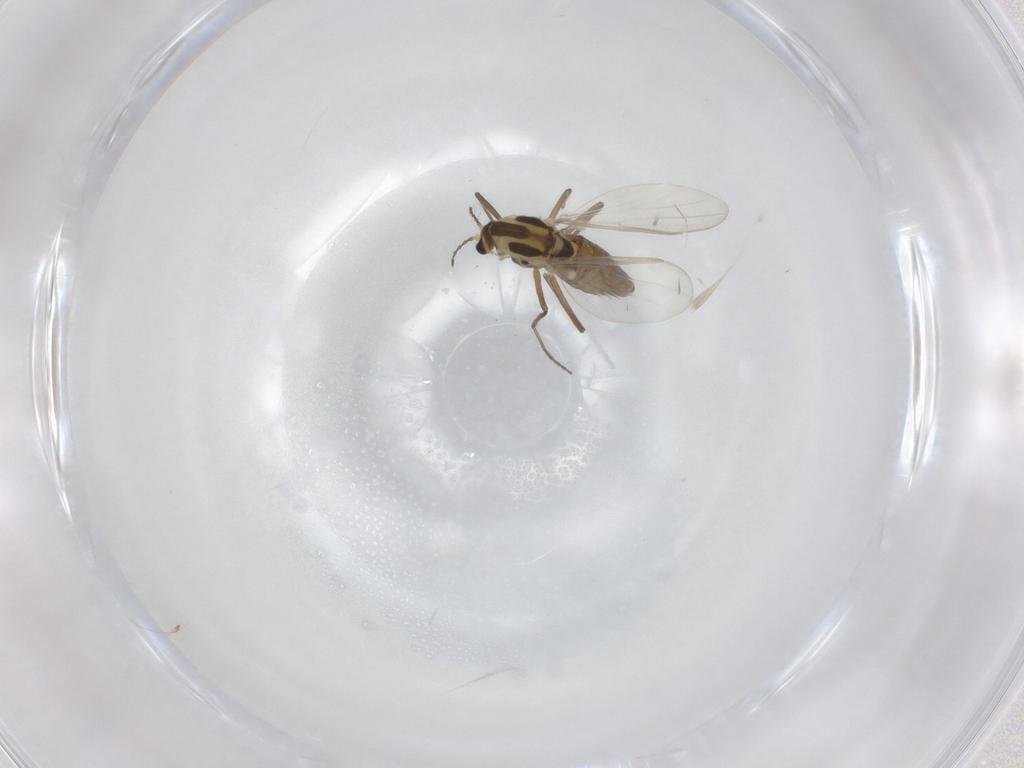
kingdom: Animalia
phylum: Arthropoda
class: Insecta
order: Diptera
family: Chironomidae
